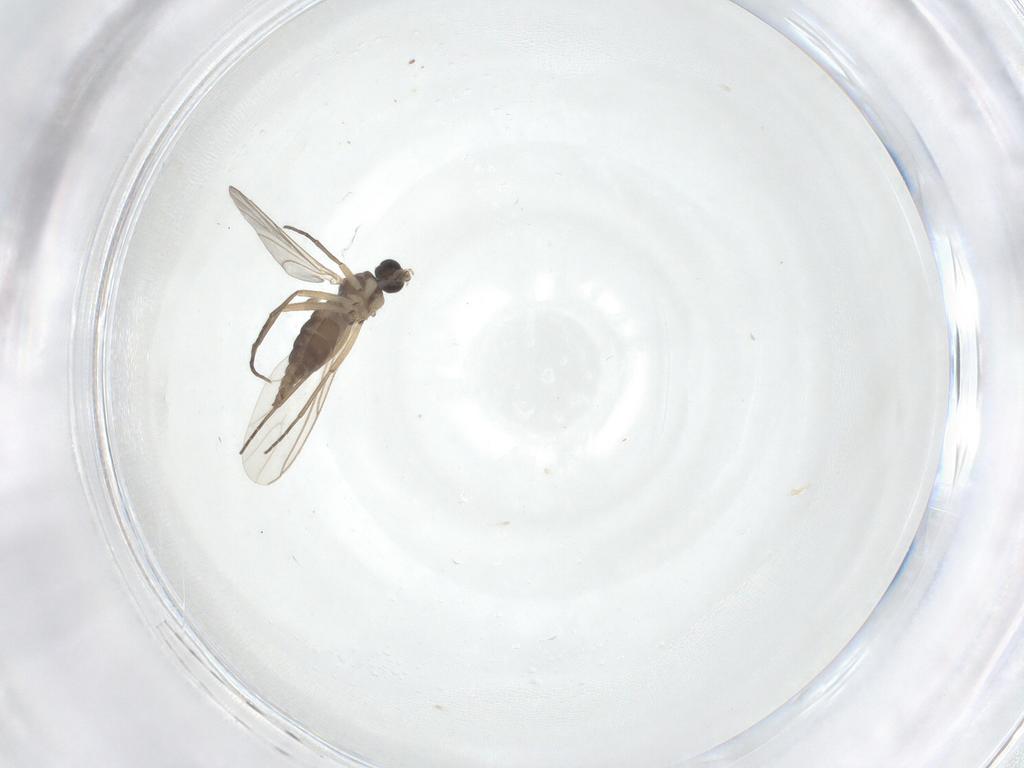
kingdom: Animalia
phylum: Arthropoda
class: Insecta
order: Diptera
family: Sciaridae
